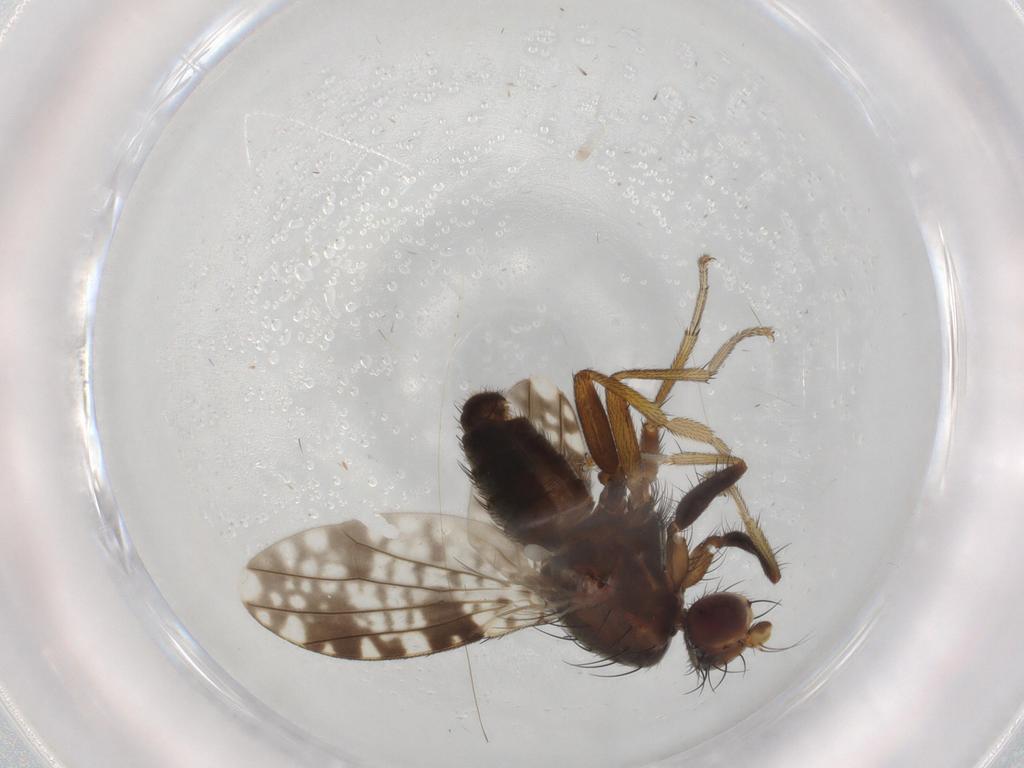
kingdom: Animalia
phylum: Arthropoda
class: Insecta
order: Diptera
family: Tephritidae
